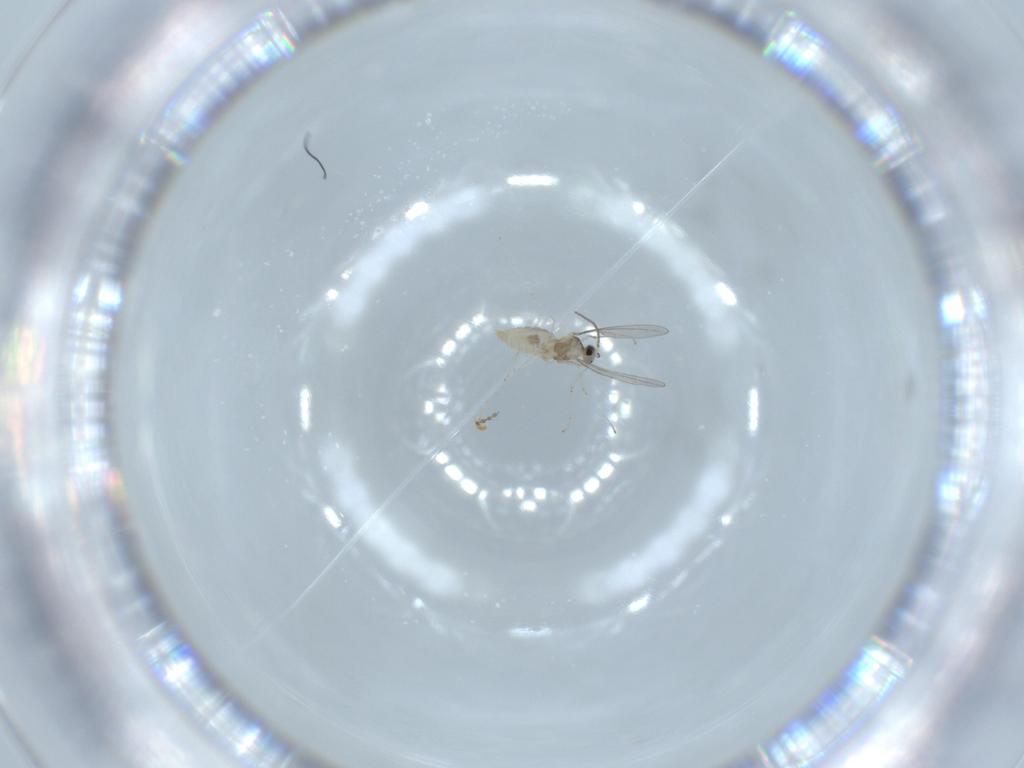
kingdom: Animalia
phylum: Arthropoda
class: Insecta
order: Diptera
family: Cecidomyiidae
